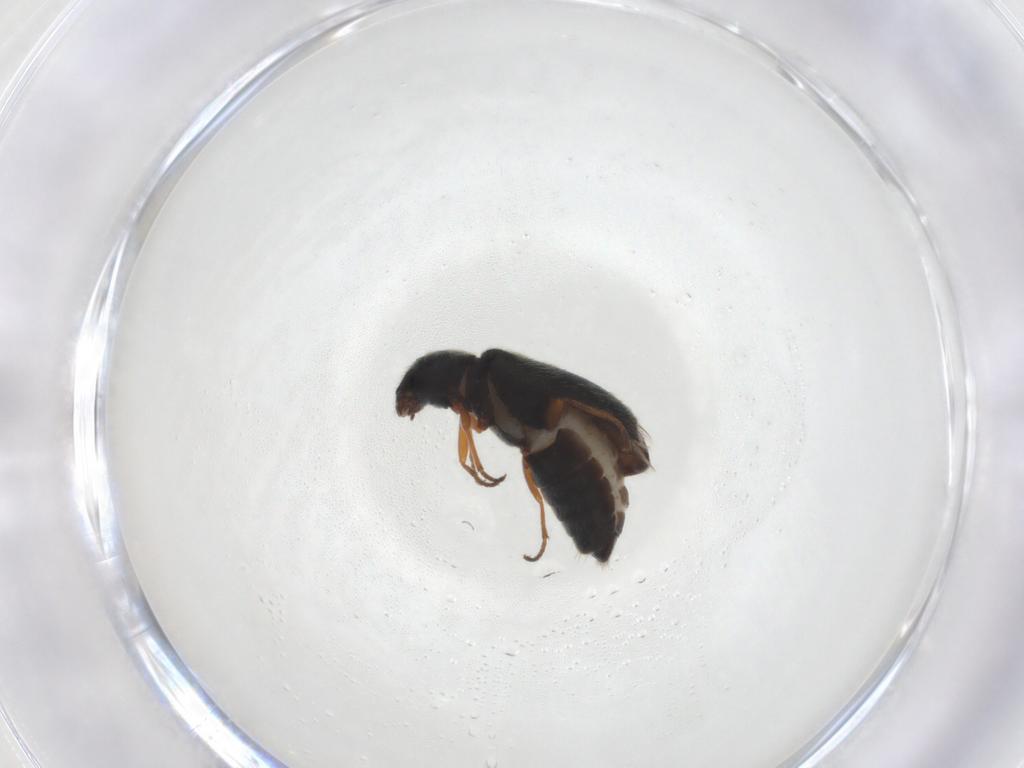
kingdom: Animalia
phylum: Arthropoda
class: Insecta
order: Coleoptera
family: Melyridae
